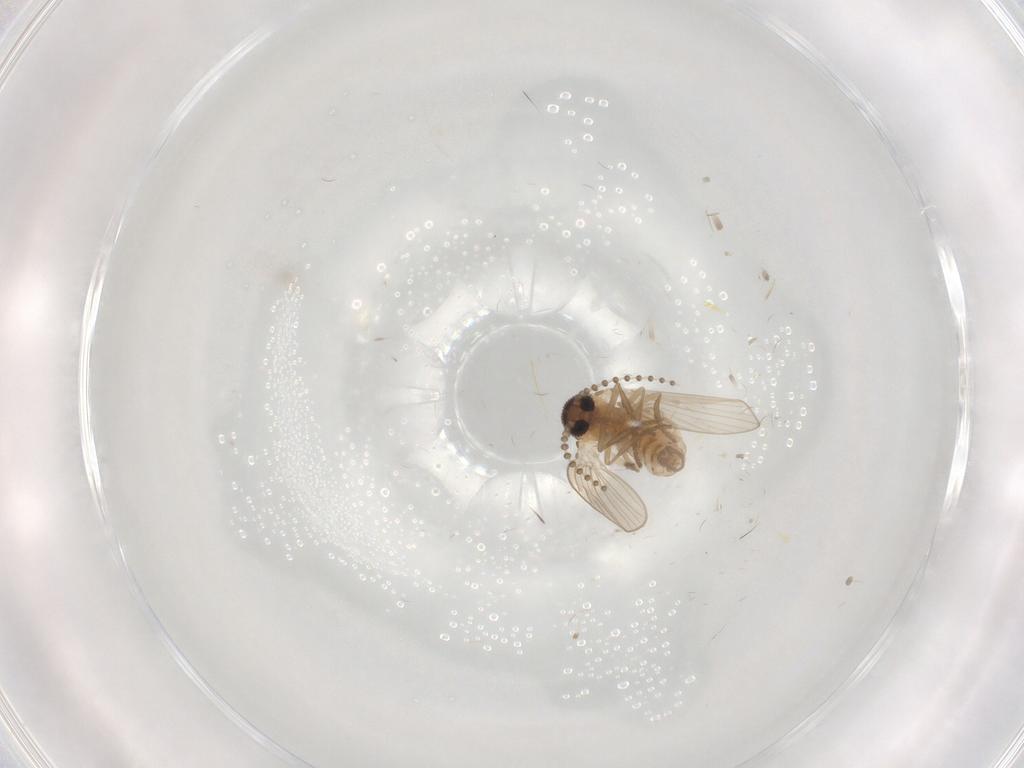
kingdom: Animalia
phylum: Arthropoda
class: Insecta
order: Diptera
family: Psychodidae
